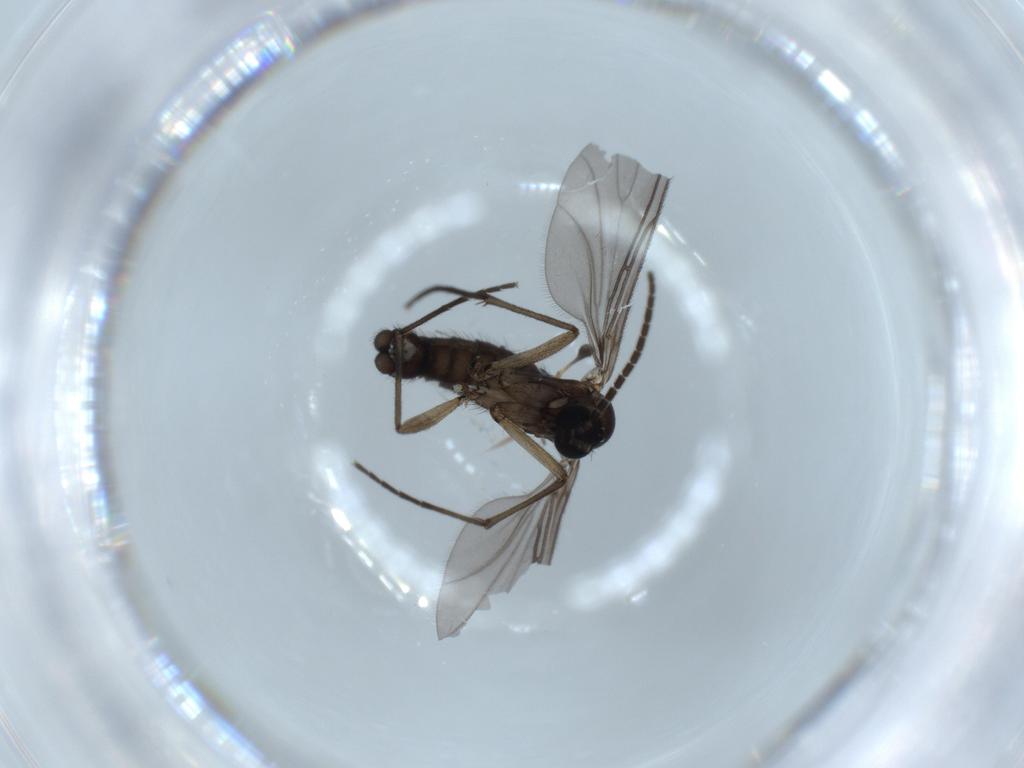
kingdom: Animalia
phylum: Arthropoda
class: Insecta
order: Diptera
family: Sciaridae
